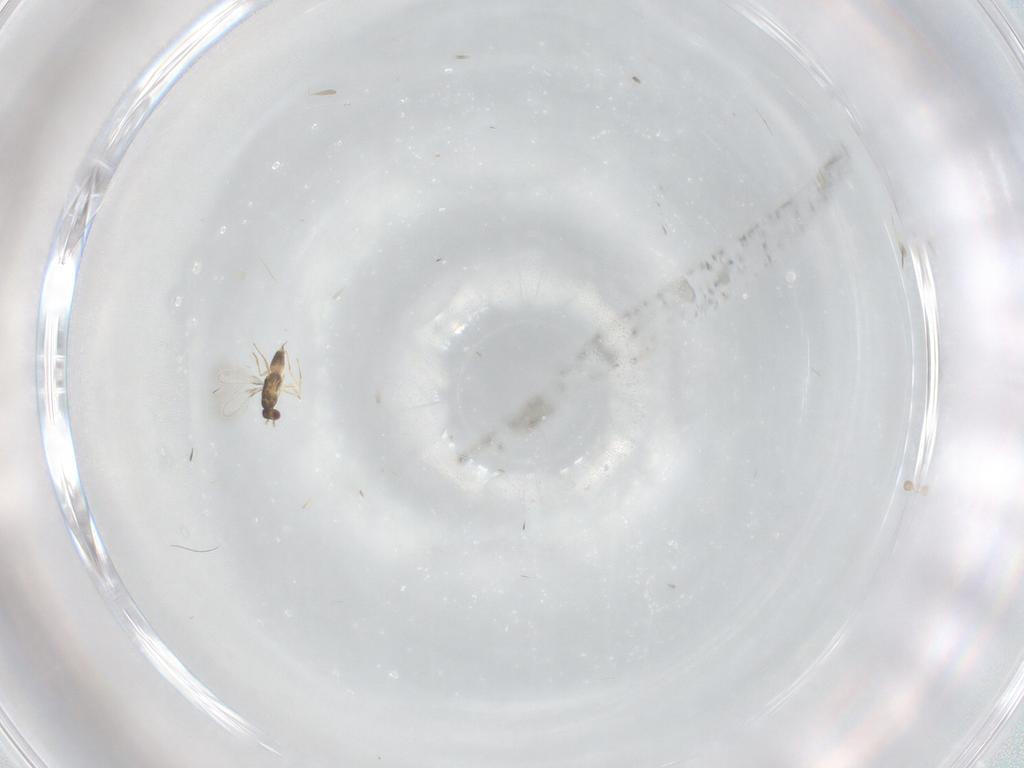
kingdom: Animalia
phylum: Arthropoda
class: Insecta
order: Hymenoptera
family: Mymaridae
